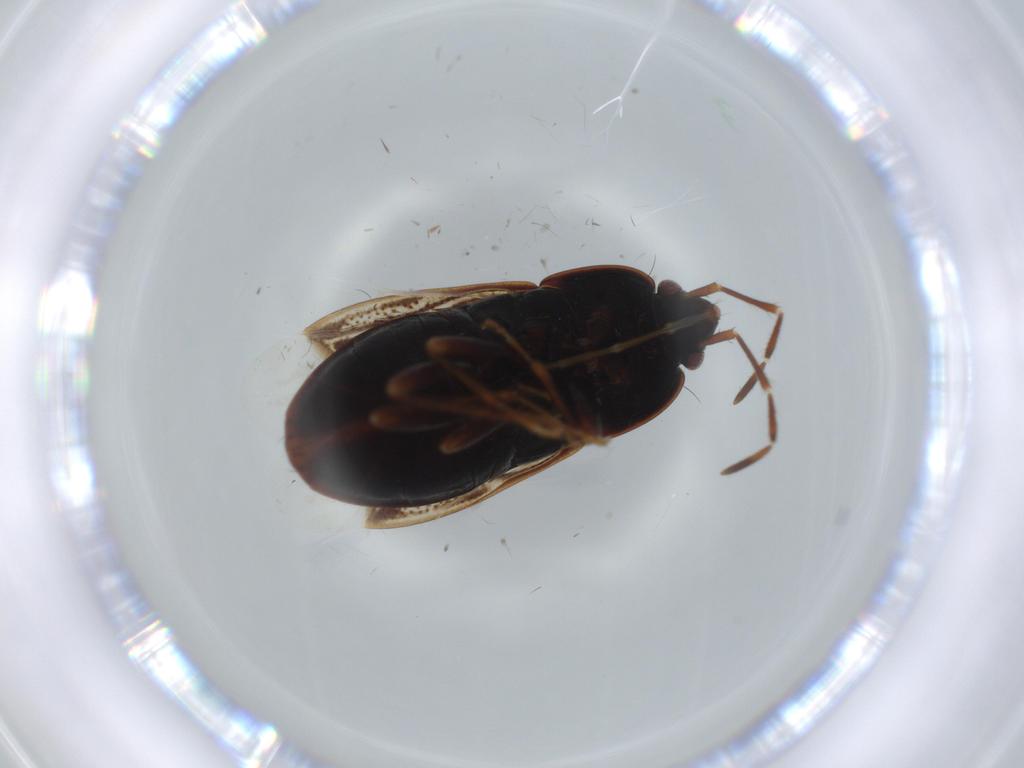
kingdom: Animalia
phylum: Arthropoda
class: Insecta
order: Hemiptera
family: Rhyparochromidae
